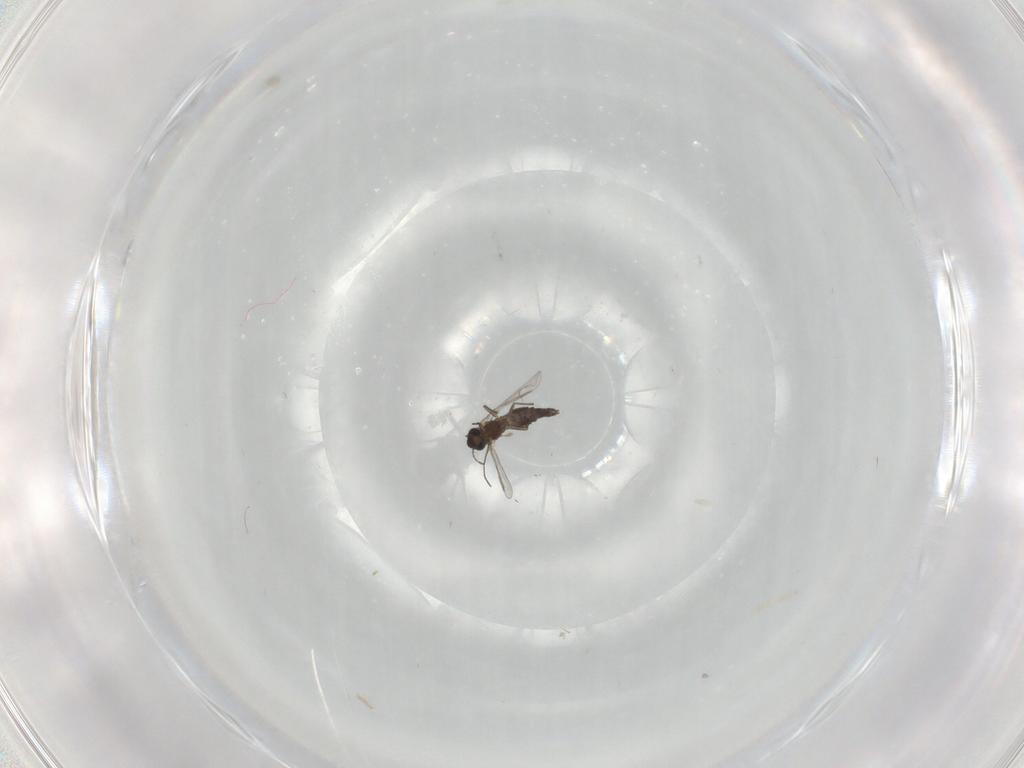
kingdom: Animalia
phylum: Arthropoda
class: Insecta
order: Diptera
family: Chironomidae
